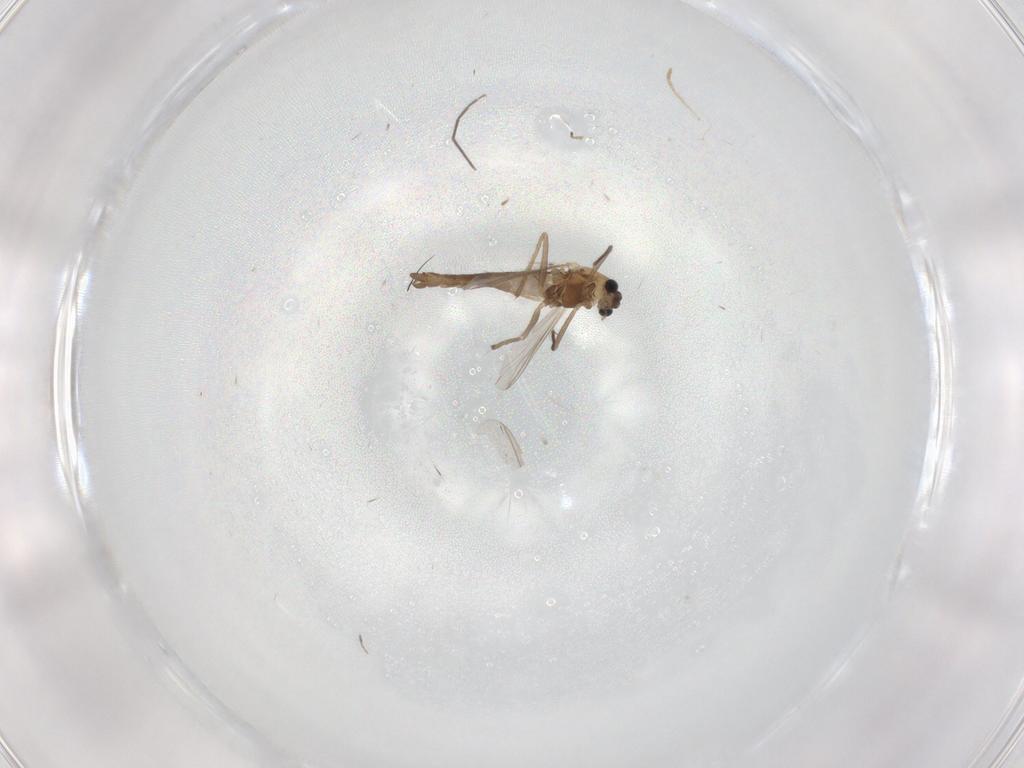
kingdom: Animalia
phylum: Arthropoda
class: Insecta
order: Diptera
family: Chironomidae
